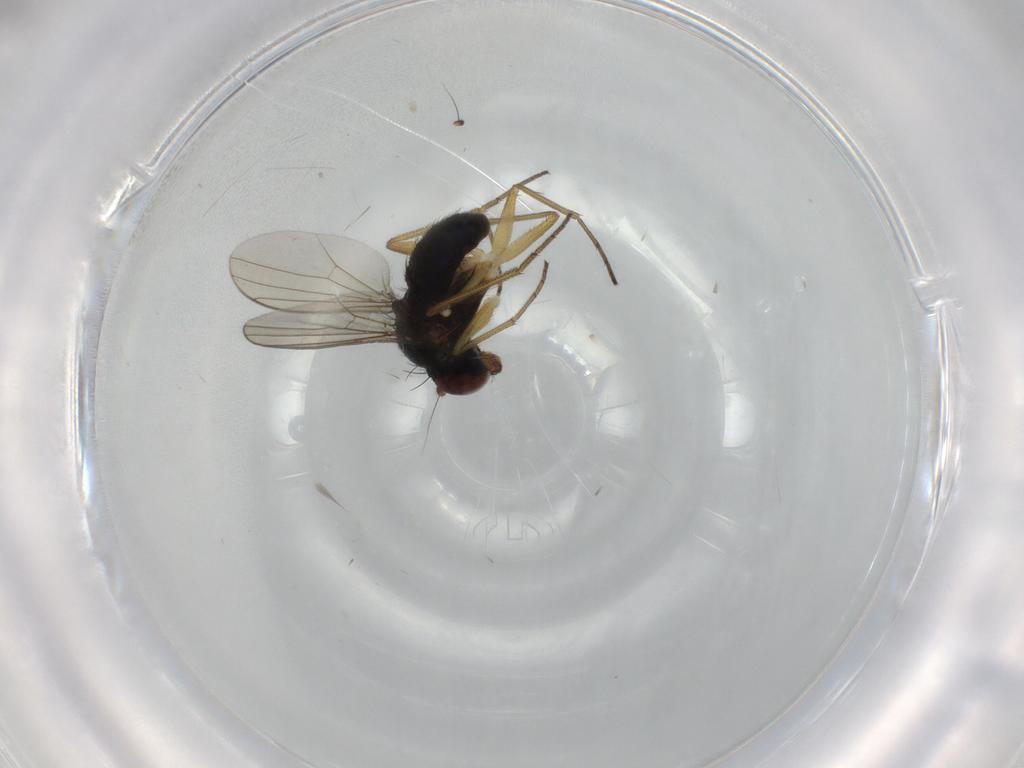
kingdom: Animalia
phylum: Arthropoda
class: Insecta
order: Diptera
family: Dolichopodidae
